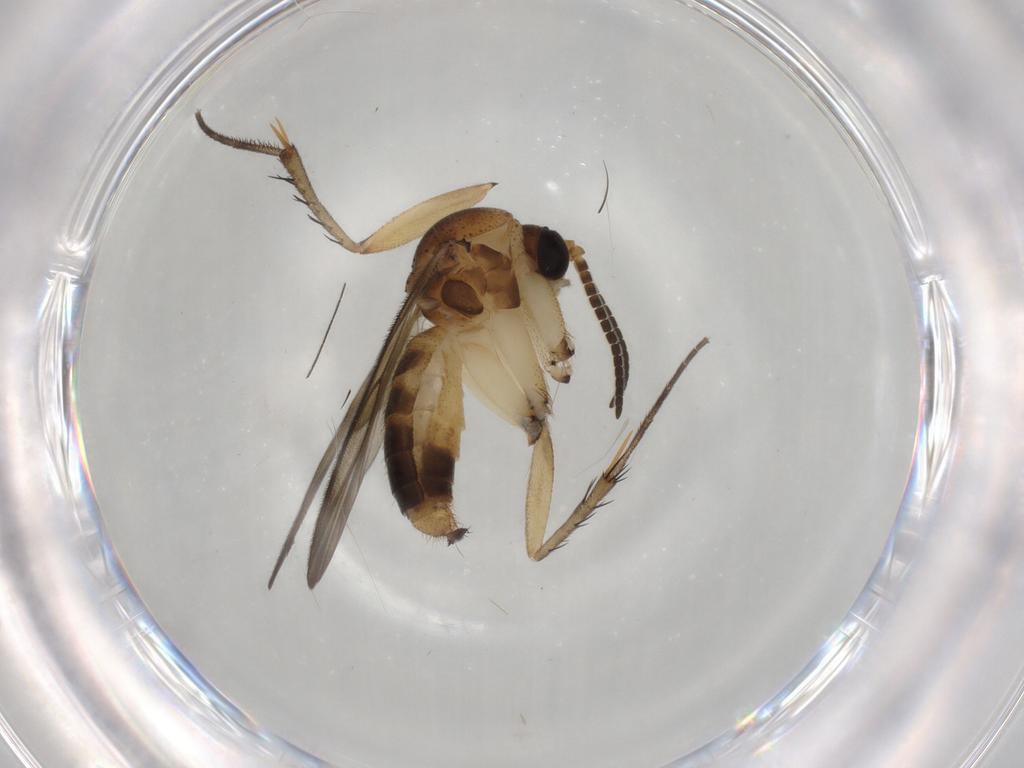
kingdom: Animalia
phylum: Arthropoda
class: Insecta
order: Diptera
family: Mycetophilidae
